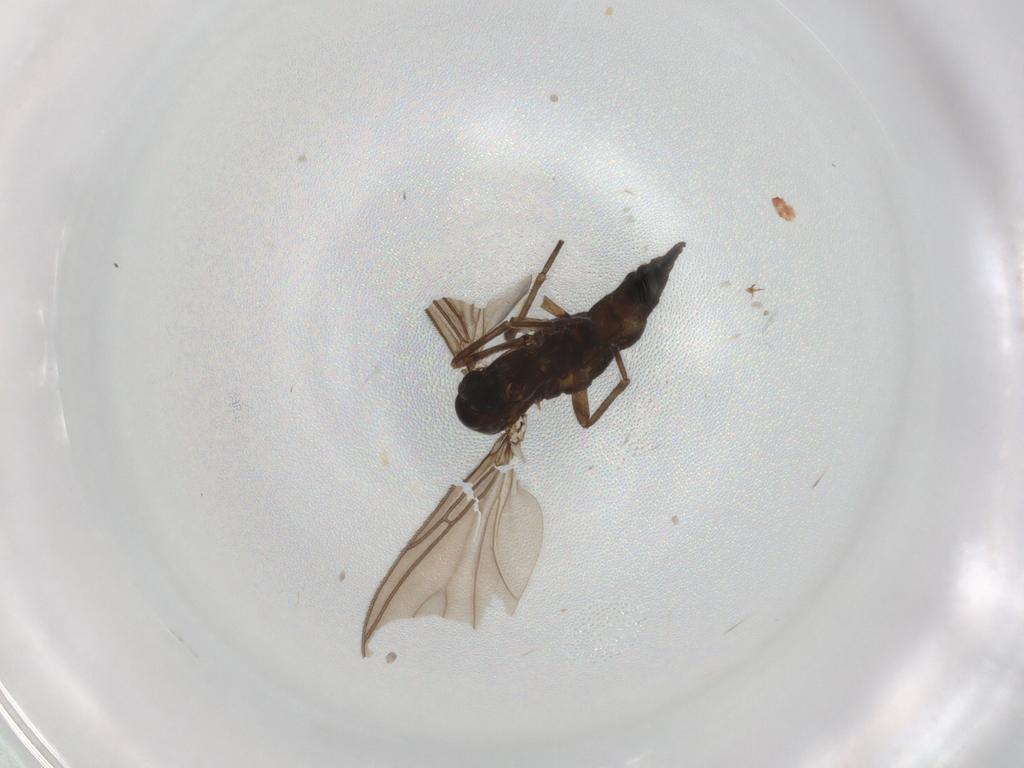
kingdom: Animalia
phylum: Arthropoda
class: Insecta
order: Diptera
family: Sciaridae
